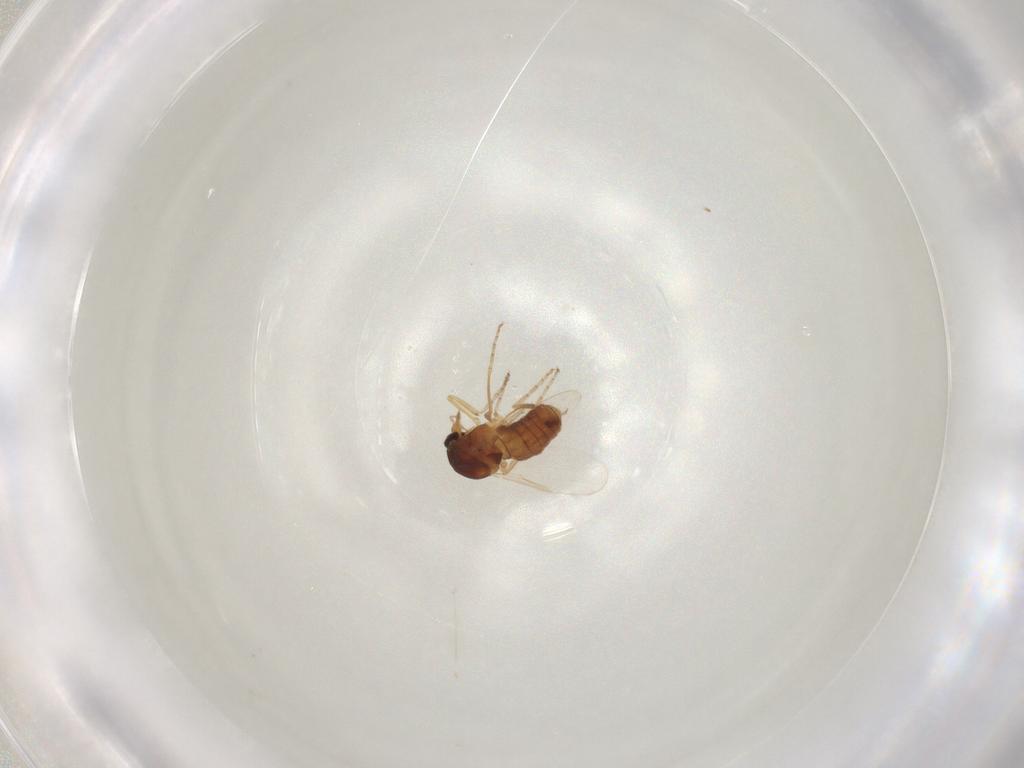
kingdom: Animalia
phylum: Arthropoda
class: Insecta
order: Diptera
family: Ceratopogonidae
